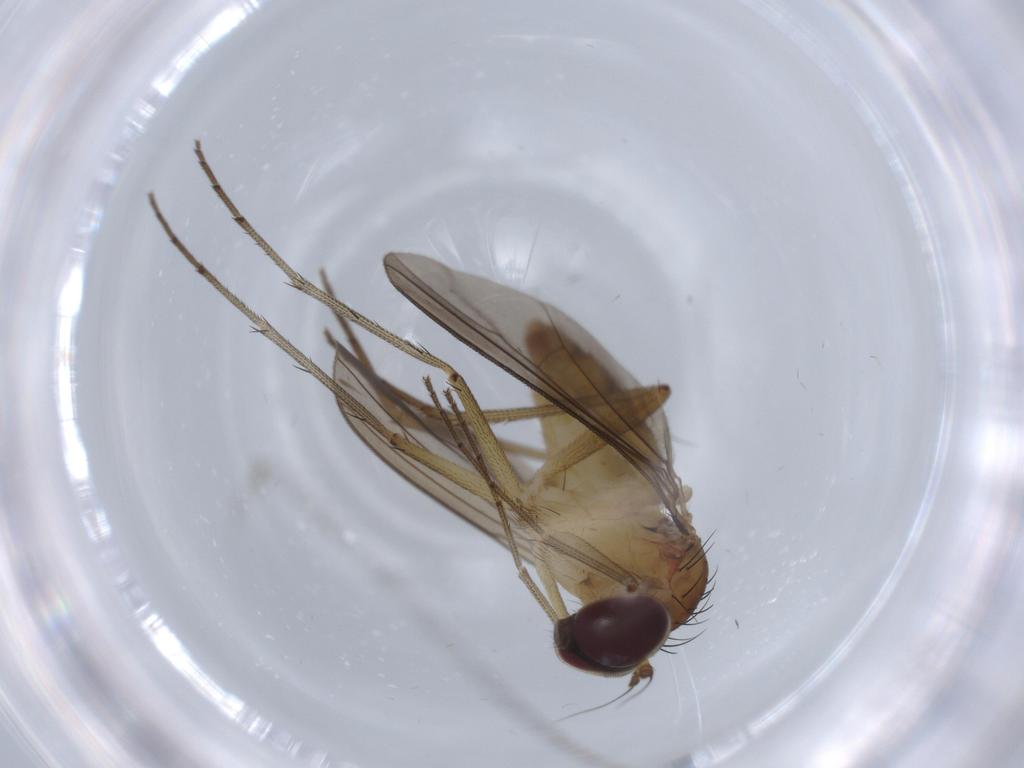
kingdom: Animalia
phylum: Arthropoda
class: Insecta
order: Diptera
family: Dolichopodidae
